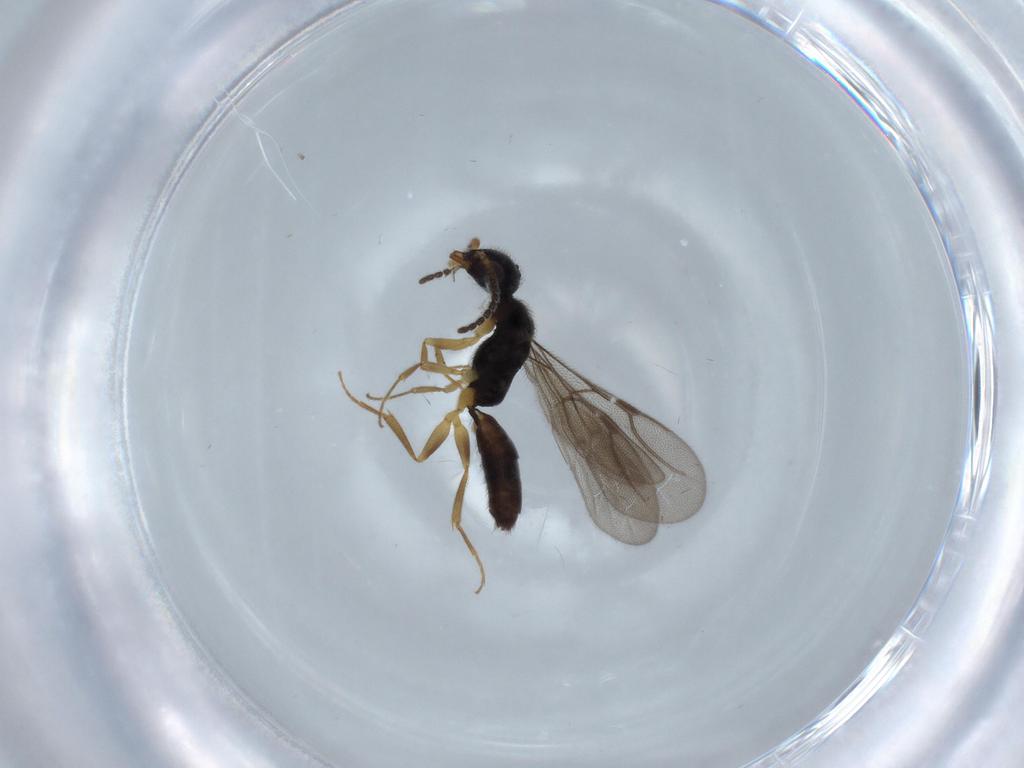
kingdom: Animalia
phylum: Arthropoda
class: Insecta
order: Hymenoptera
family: Bethylidae
